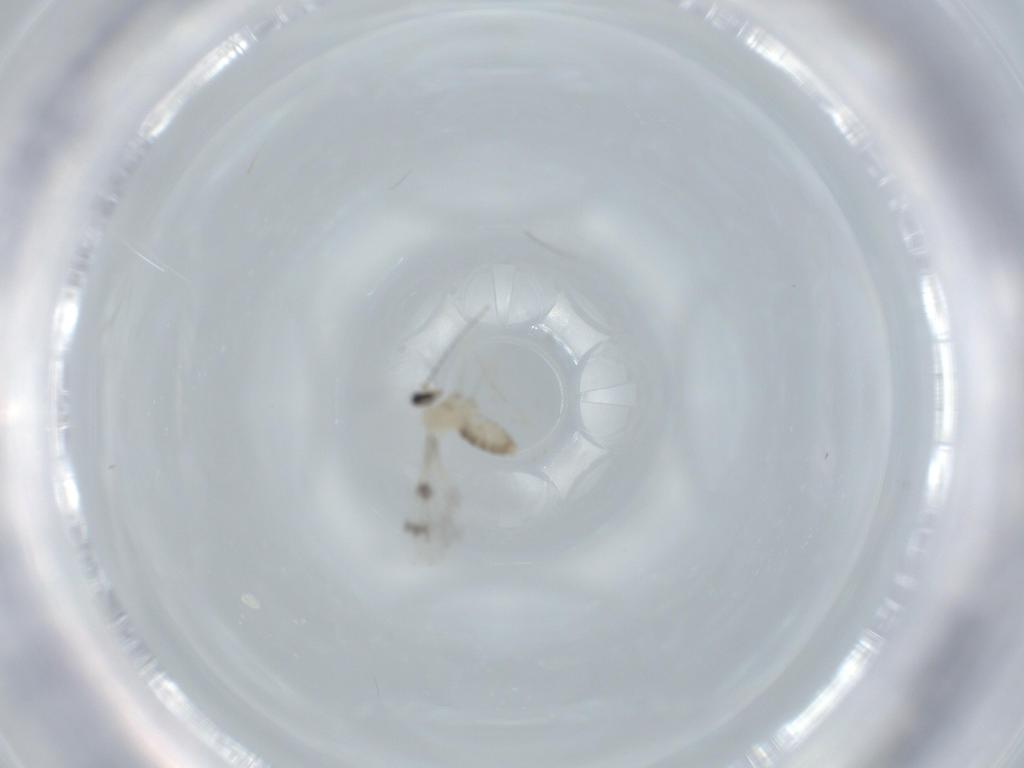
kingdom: Animalia
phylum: Arthropoda
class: Insecta
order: Diptera
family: Cecidomyiidae
